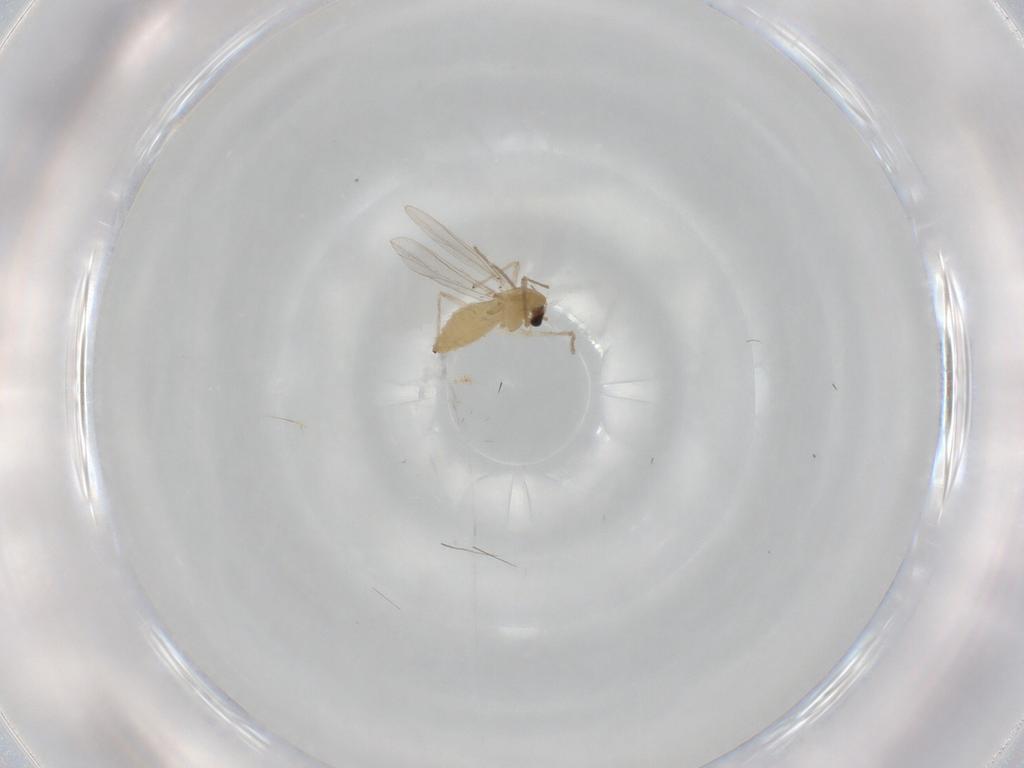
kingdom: Animalia
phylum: Arthropoda
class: Insecta
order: Diptera
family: Chironomidae
